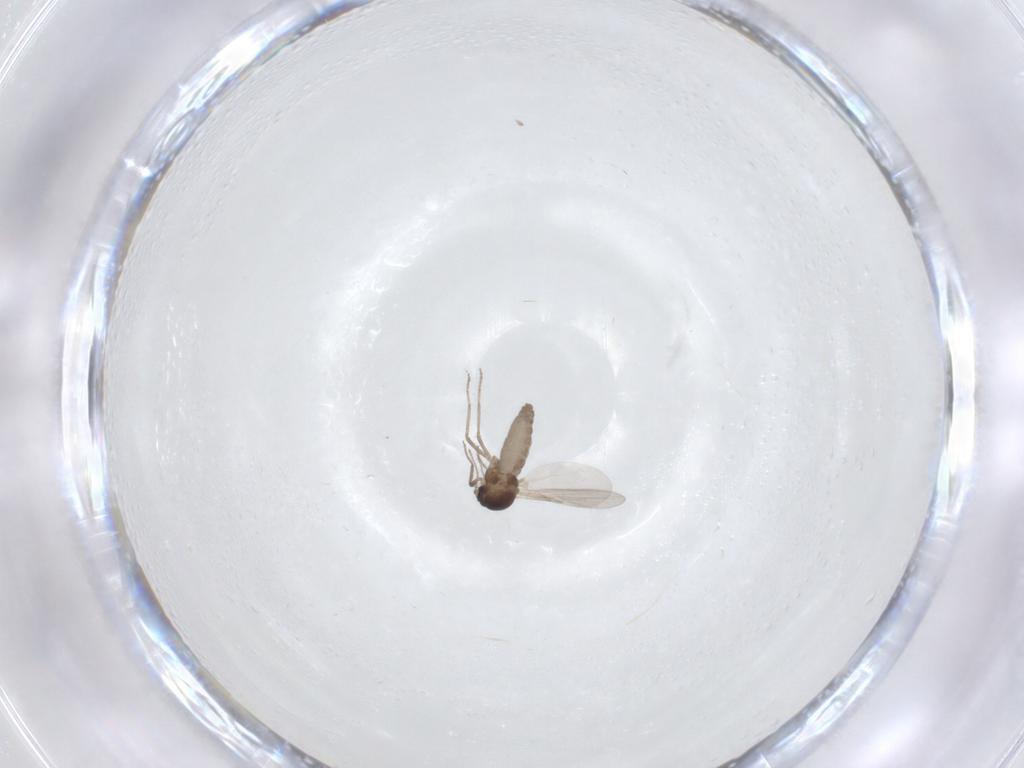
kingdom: Animalia
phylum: Arthropoda
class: Insecta
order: Diptera
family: Ceratopogonidae
